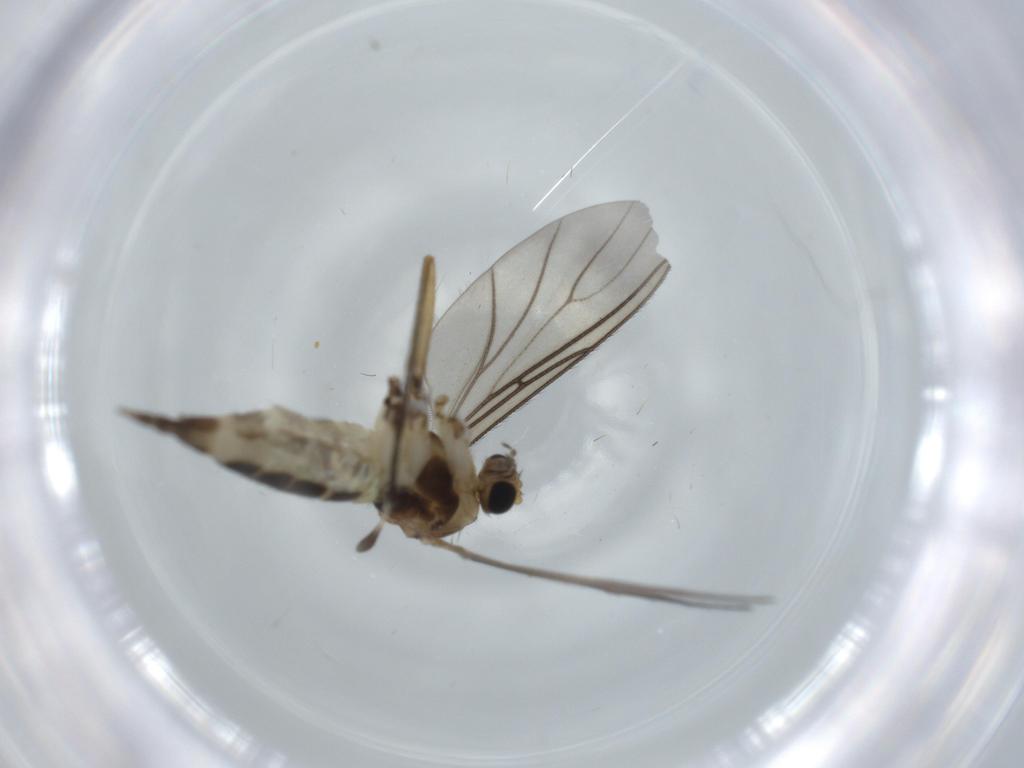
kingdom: Animalia
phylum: Arthropoda
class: Insecta
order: Diptera
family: Sciaridae
